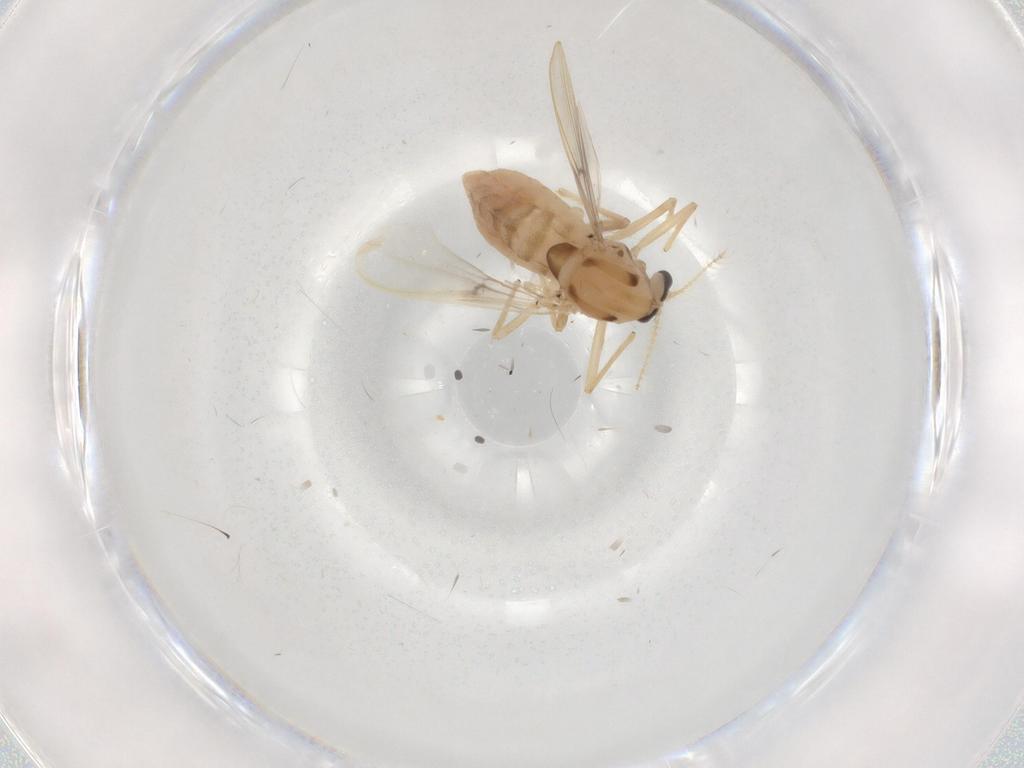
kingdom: Animalia
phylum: Arthropoda
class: Insecta
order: Diptera
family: Chironomidae
